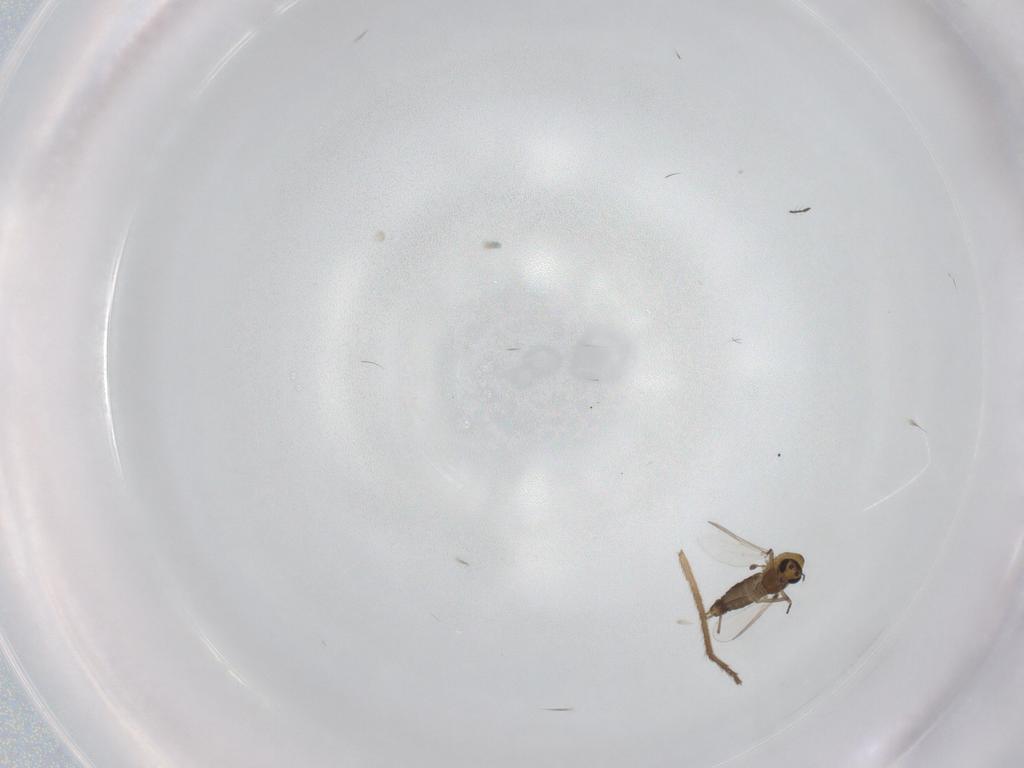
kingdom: Animalia
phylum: Arthropoda
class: Insecta
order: Diptera
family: Chironomidae
